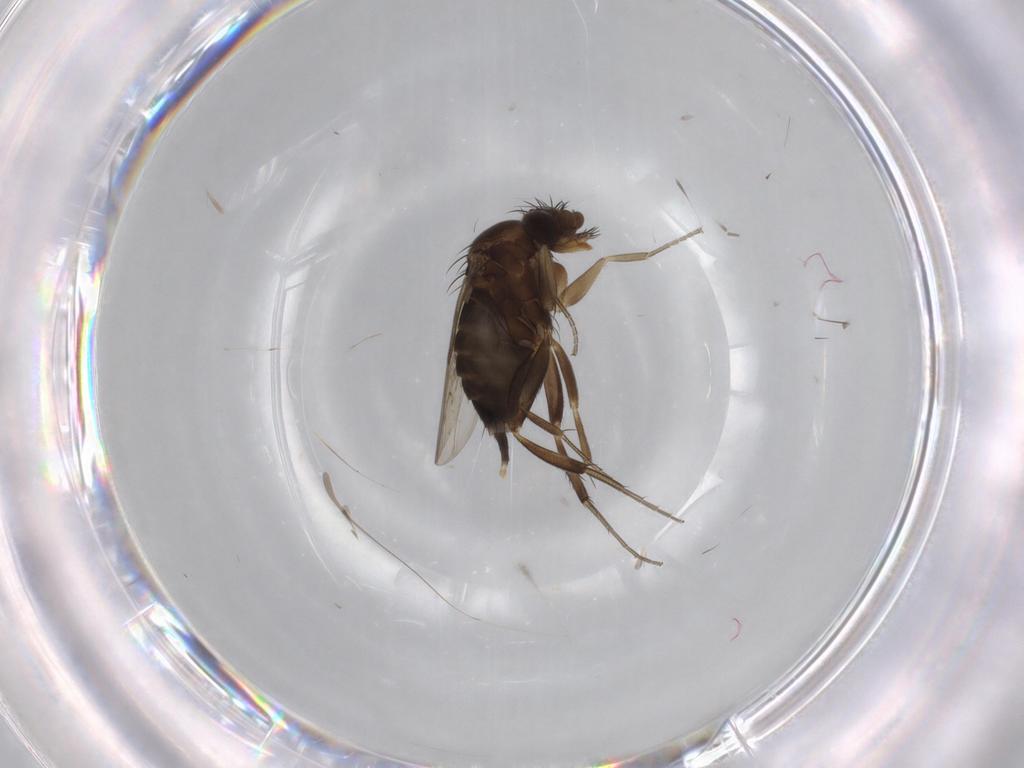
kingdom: Animalia
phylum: Arthropoda
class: Insecta
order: Diptera
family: Phoridae
